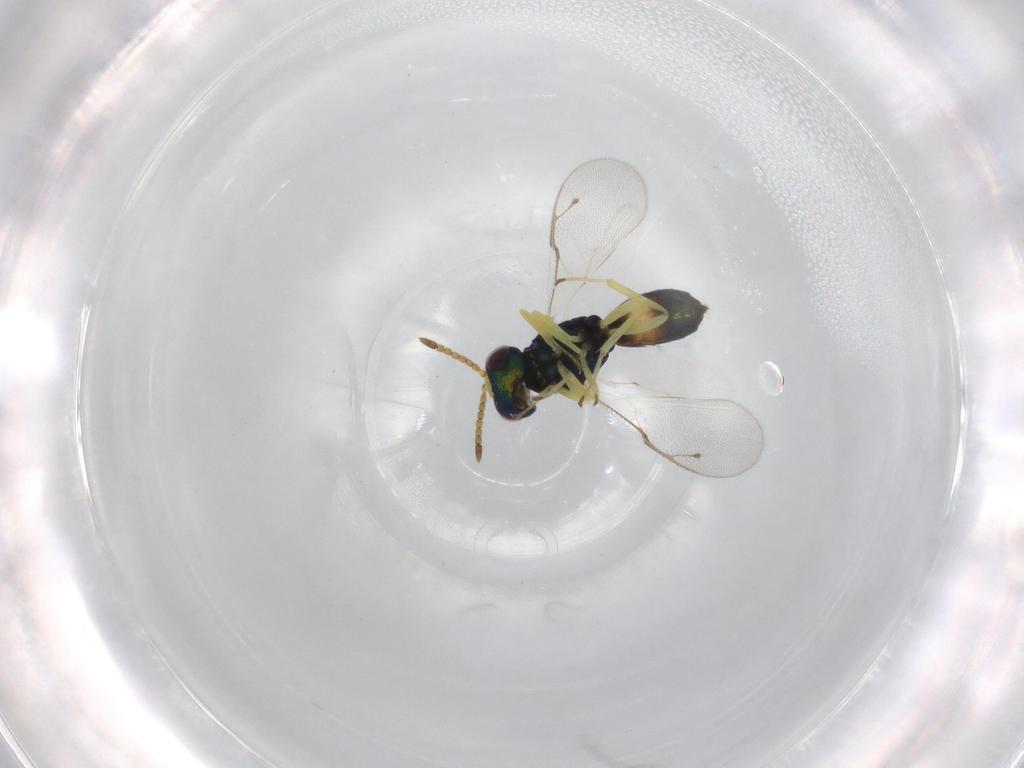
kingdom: Animalia
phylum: Arthropoda
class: Insecta
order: Hymenoptera
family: Pteromalidae
